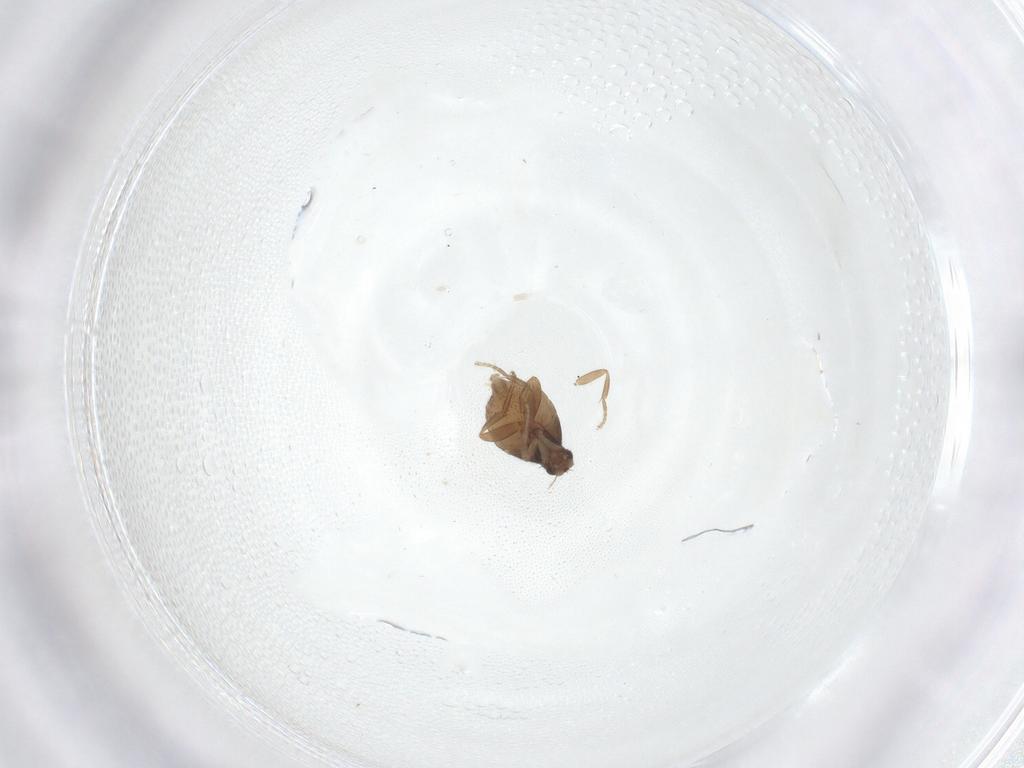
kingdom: Animalia
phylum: Arthropoda
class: Insecta
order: Diptera
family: Phoridae
